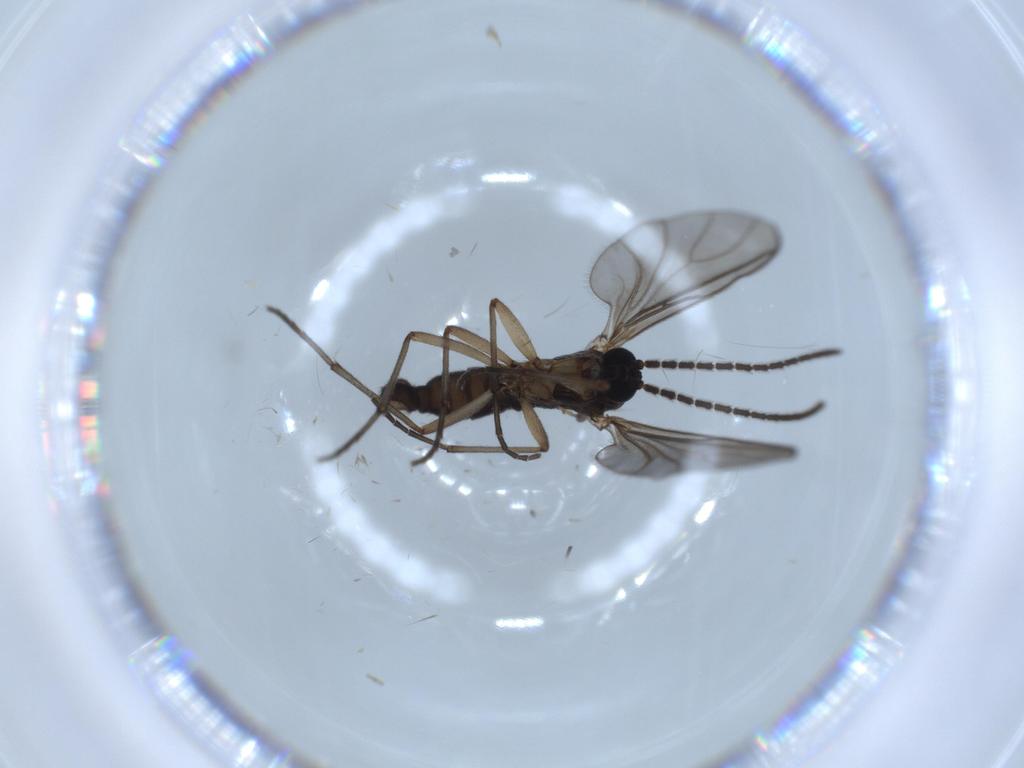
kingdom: Animalia
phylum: Arthropoda
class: Insecta
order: Diptera
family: Sciaridae
